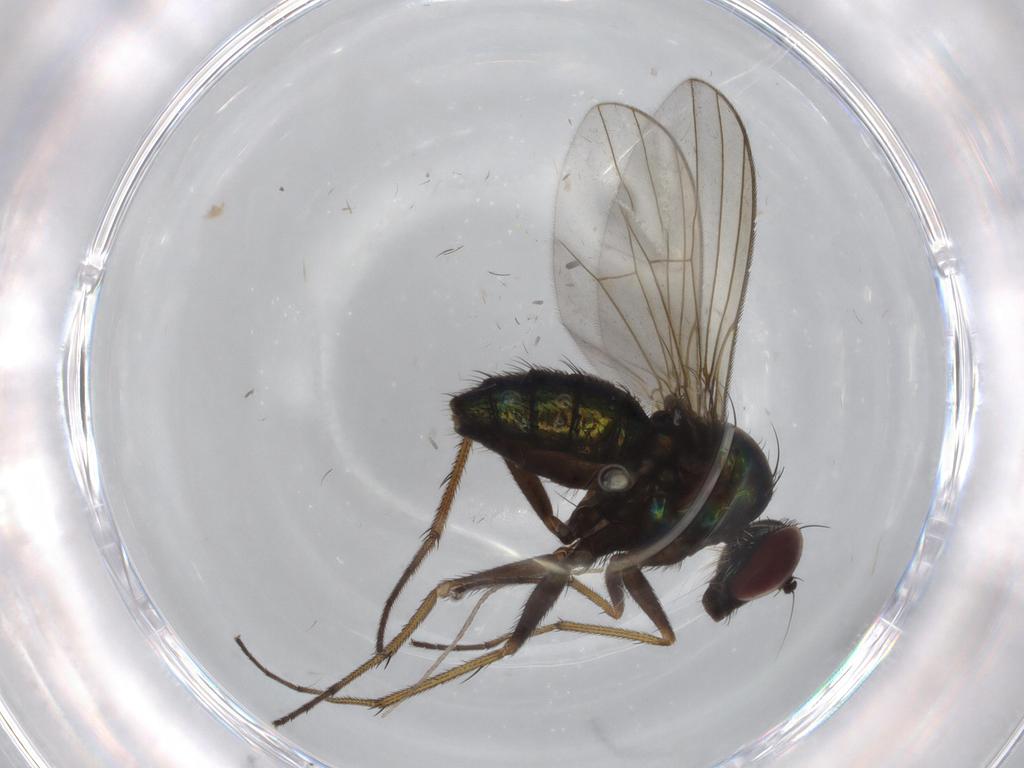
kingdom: Animalia
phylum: Arthropoda
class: Insecta
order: Diptera
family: Dolichopodidae
